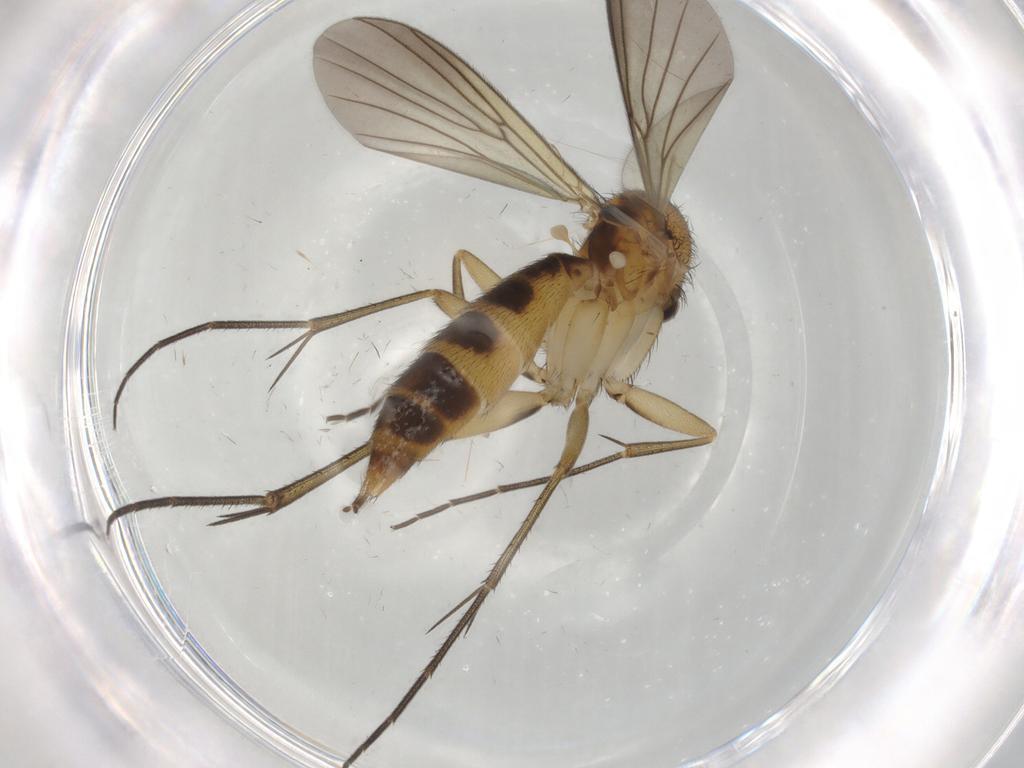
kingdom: Animalia
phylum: Arthropoda
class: Insecta
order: Diptera
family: Mycetophilidae
